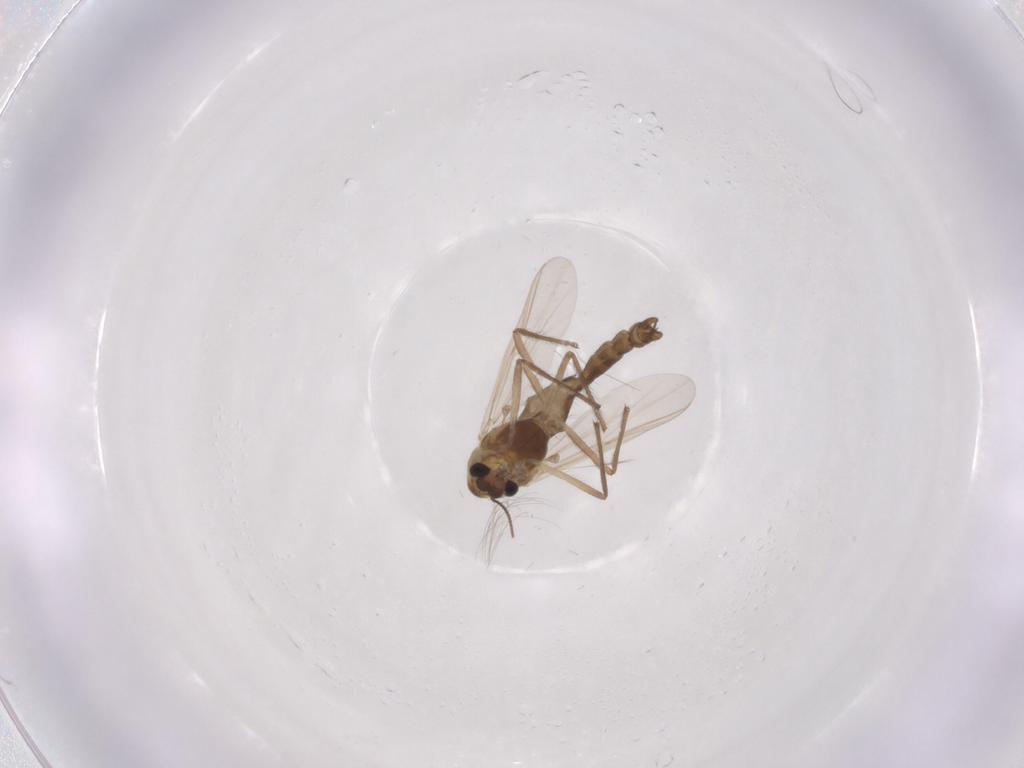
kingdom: Animalia
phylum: Arthropoda
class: Insecta
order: Diptera
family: Chironomidae
